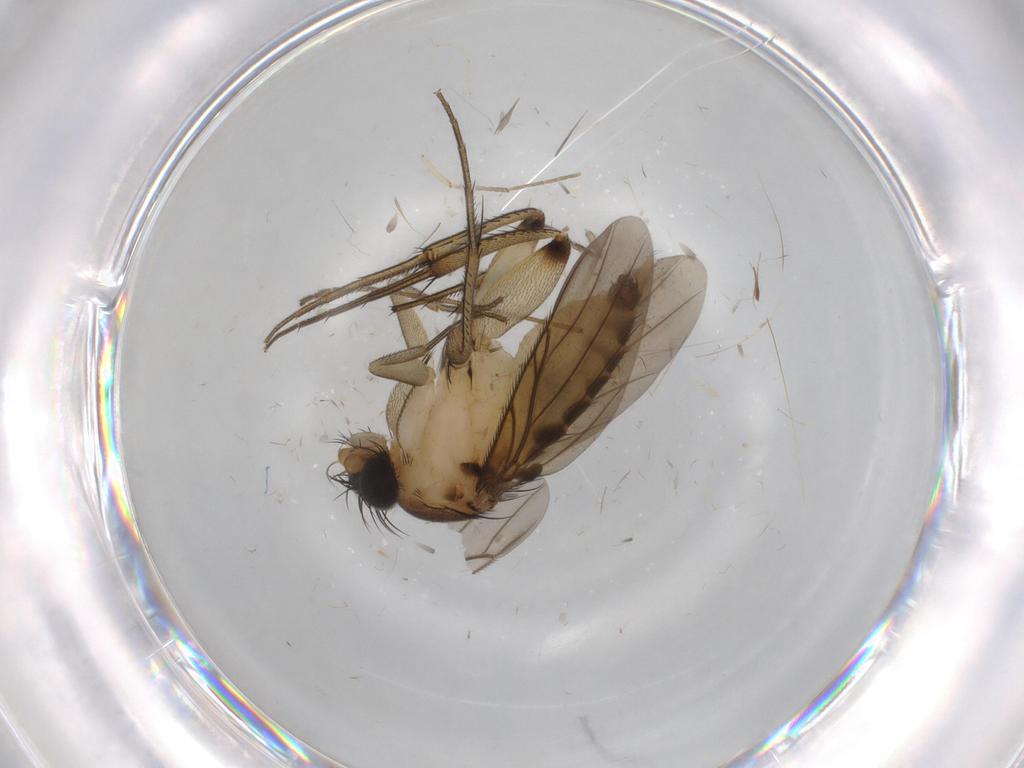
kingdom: Animalia
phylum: Arthropoda
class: Insecta
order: Diptera
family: Psychodidae
